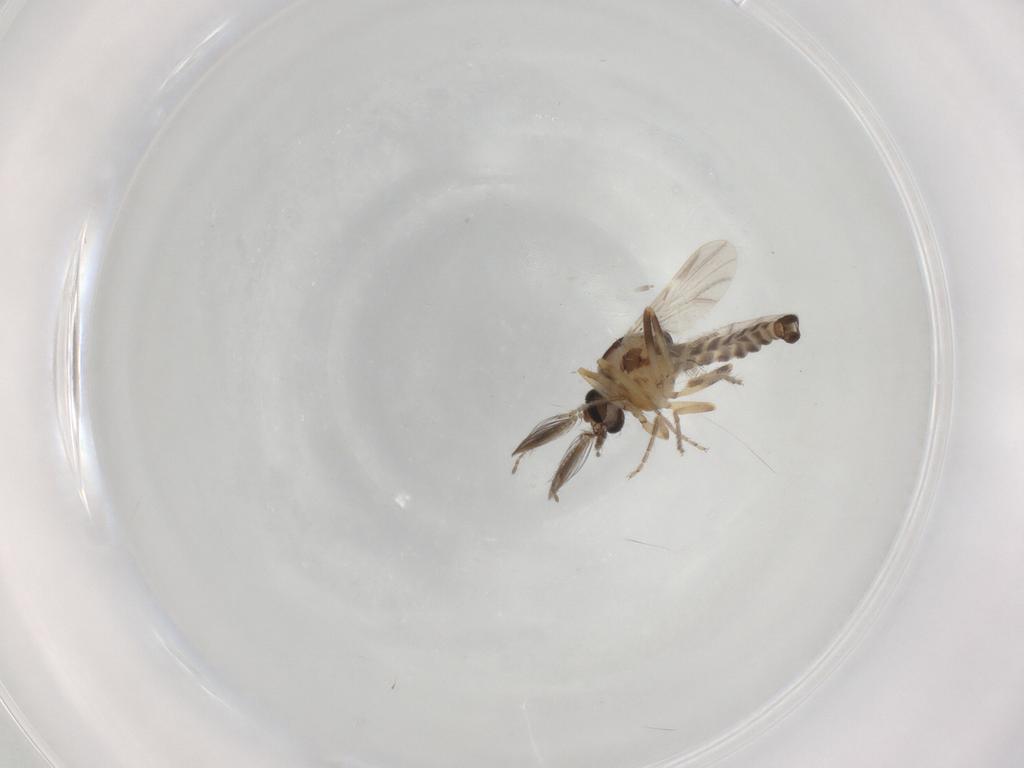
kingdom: Animalia
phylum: Arthropoda
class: Insecta
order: Diptera
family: Ceratopogonidae
